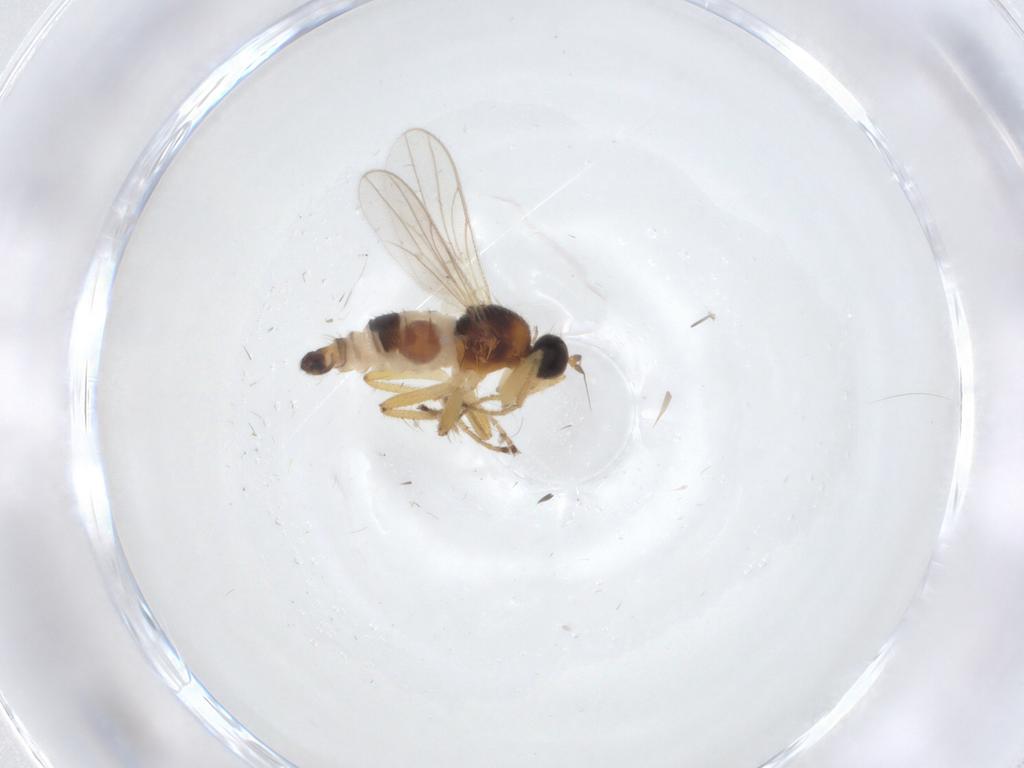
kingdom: Animalia
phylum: Arthropoda
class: Insecta
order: Diptera
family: Hybotidae
